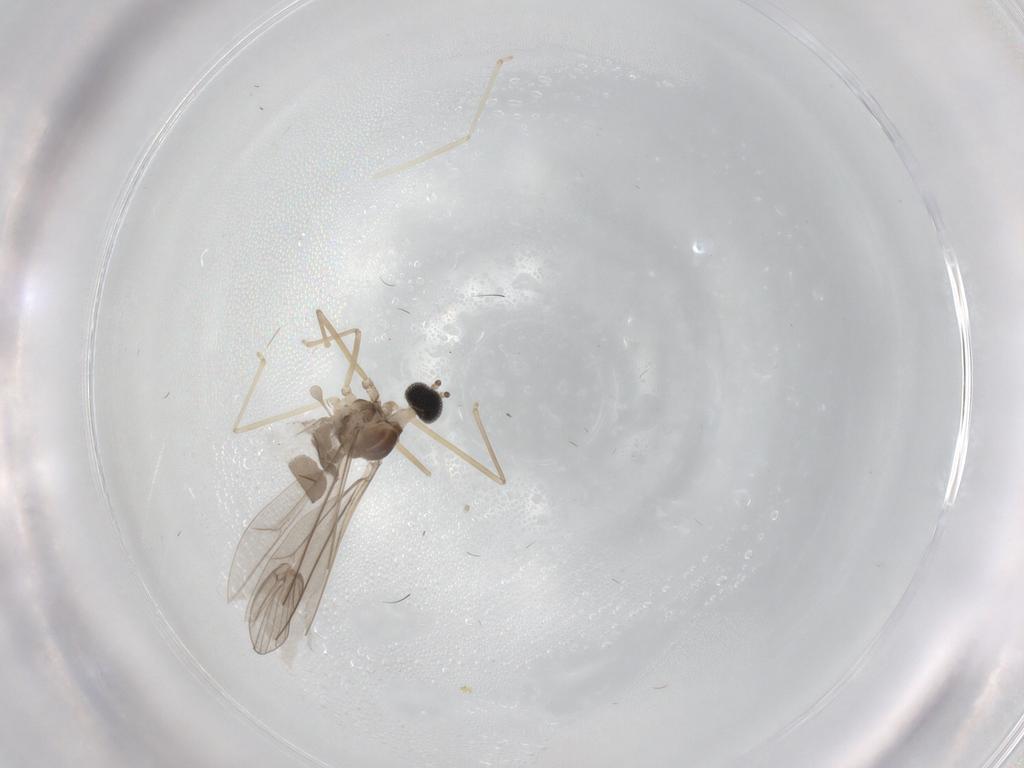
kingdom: Animalia
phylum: Arthropoda
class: Insecta
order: Diptera
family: Cecidomyiidae
